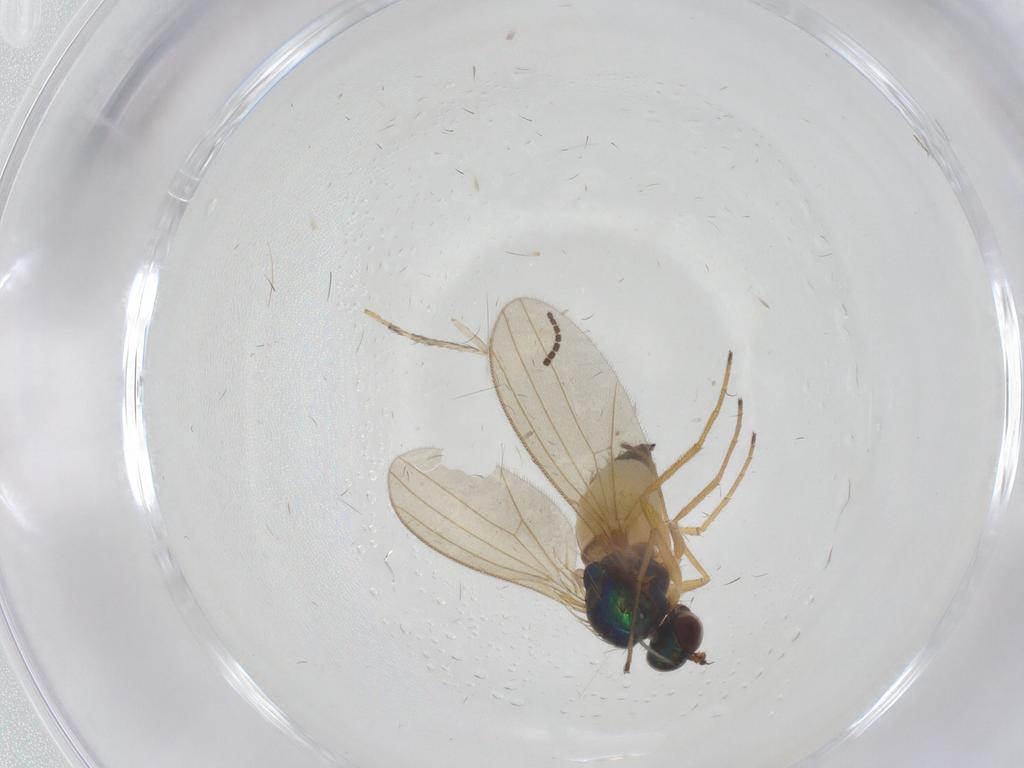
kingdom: Animalia
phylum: Arthropoda
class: Insecta
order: Diptera
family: Dolichopodidae
